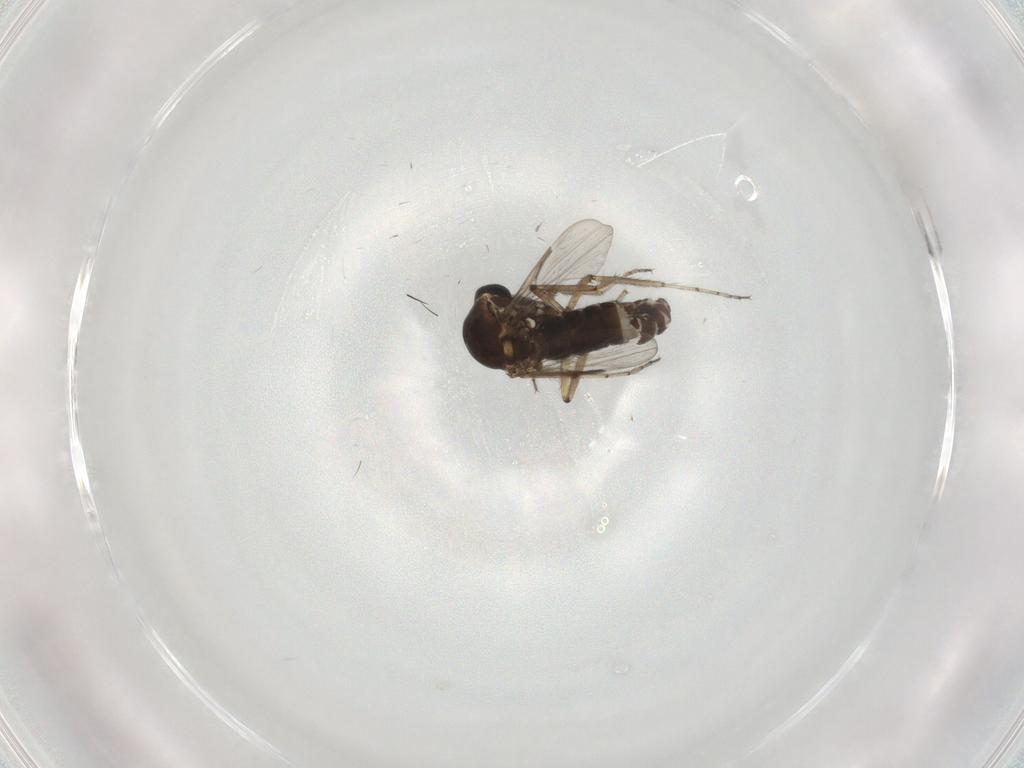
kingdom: Animalia
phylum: Arthropoda
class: Insecta
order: Diptera
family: Ceratopogonidae
